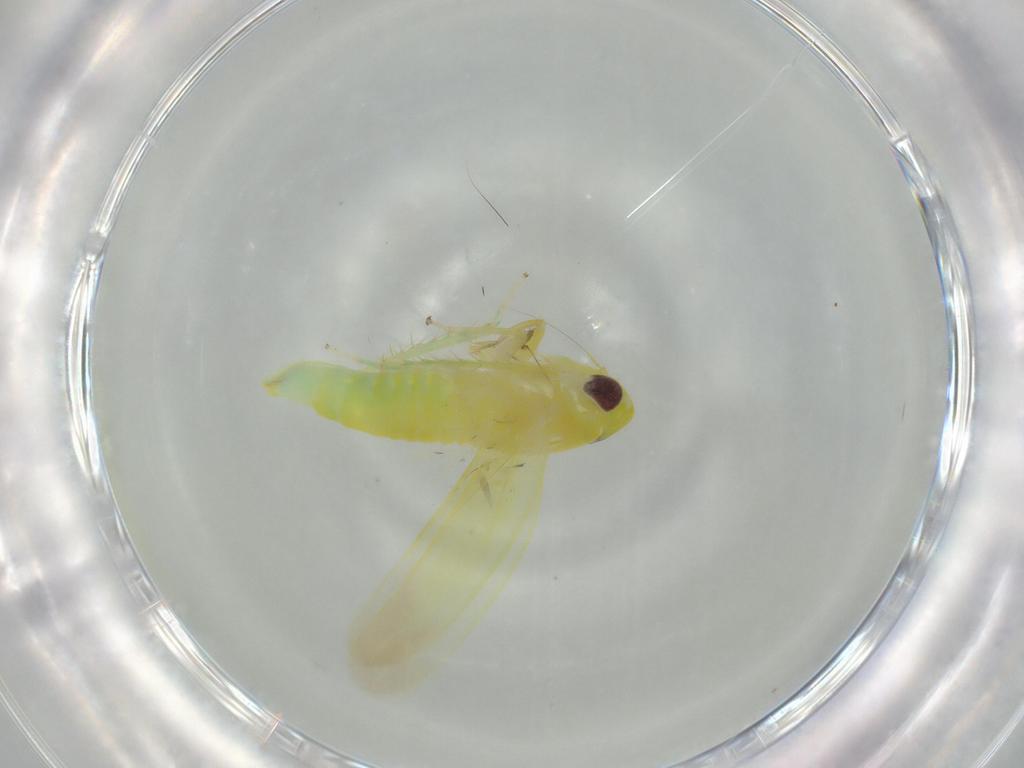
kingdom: Animalia
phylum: Arthropoda
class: Insecta
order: Hemiptera
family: Cicadellidae
